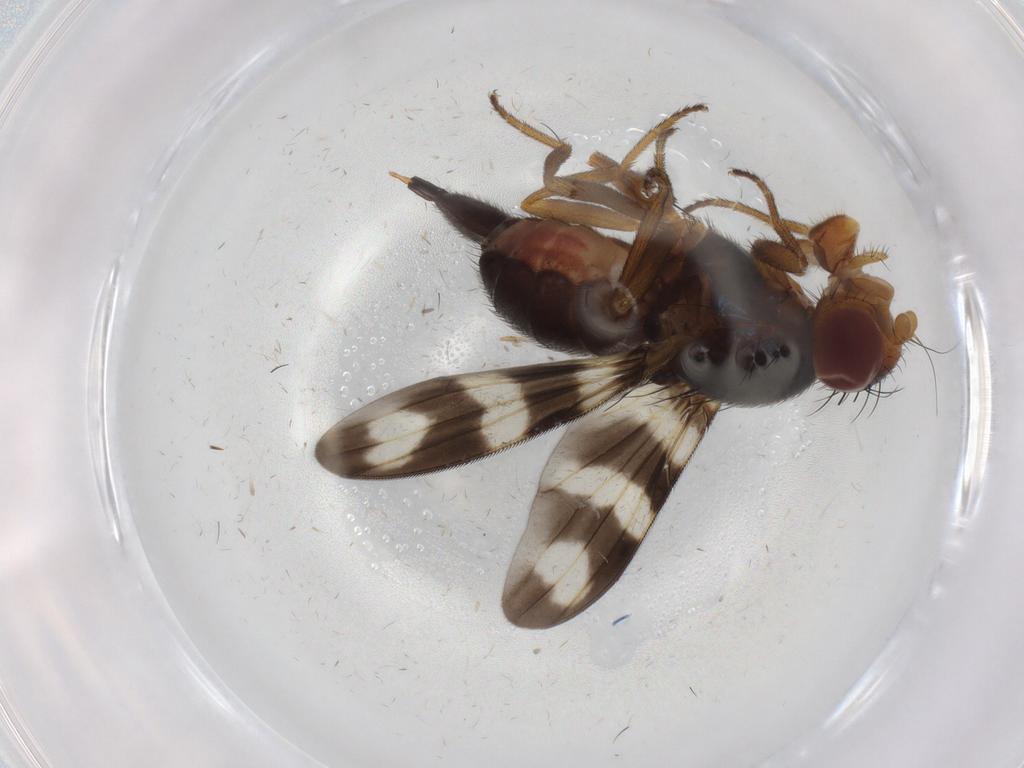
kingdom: Animalia
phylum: Arthropoda
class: Insecta
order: Diptera
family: Ulidiidae
